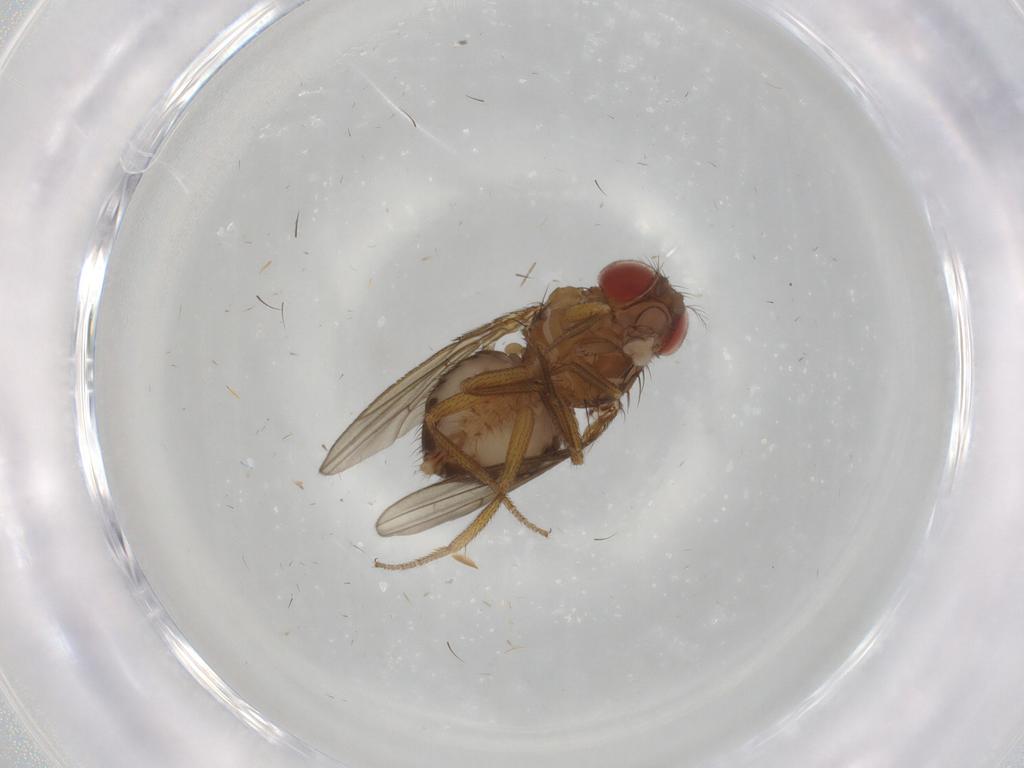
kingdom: Animalia
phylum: Arthropoda
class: Insecta
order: Diptera
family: Drosophilidae
